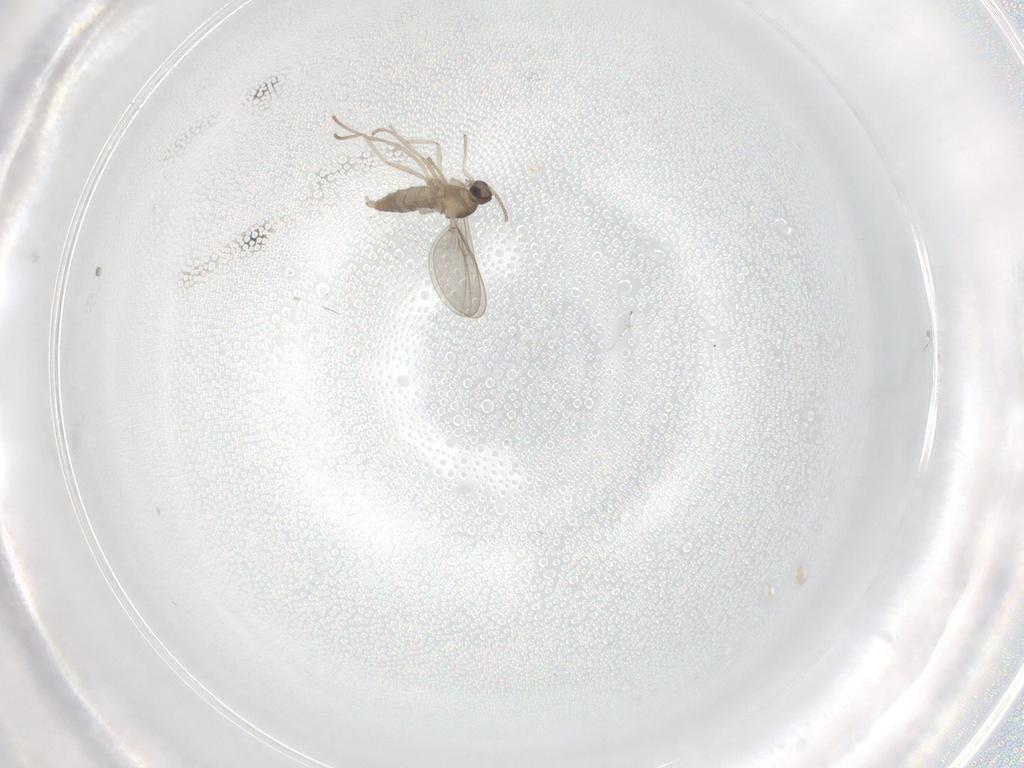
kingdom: Animalia
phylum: Arthropoda
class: Insecta
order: Diptera
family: Cecidomyiidae
